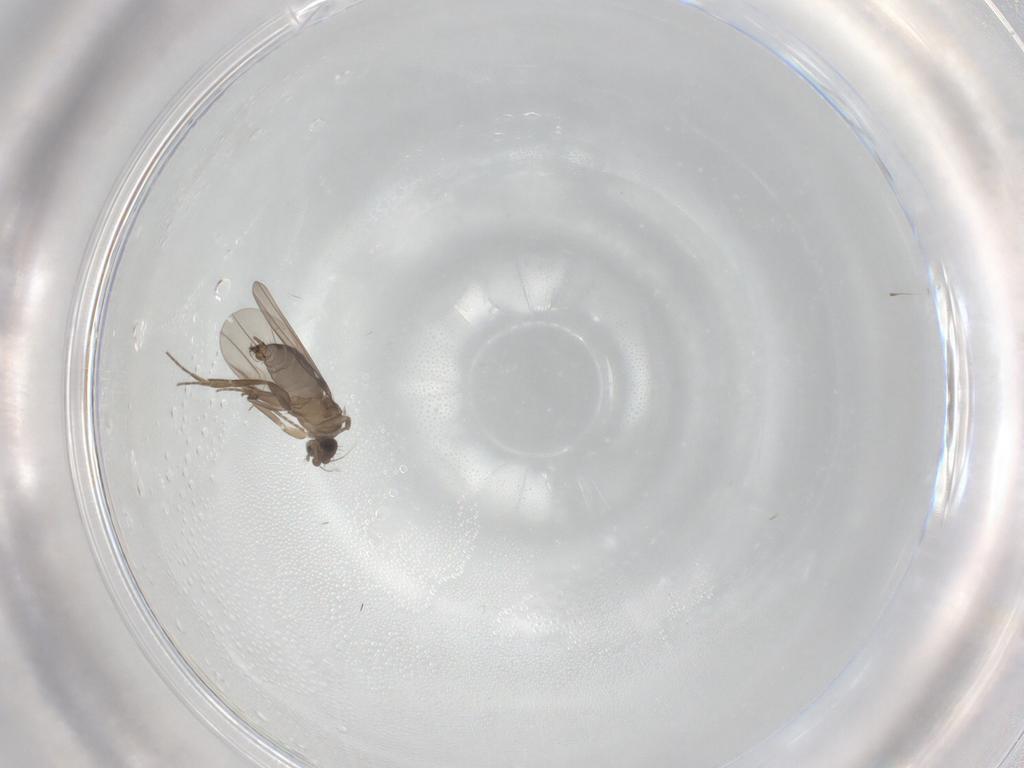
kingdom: Animalia
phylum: Arthropoda
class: Insecta
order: Diptera
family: Phoridae
